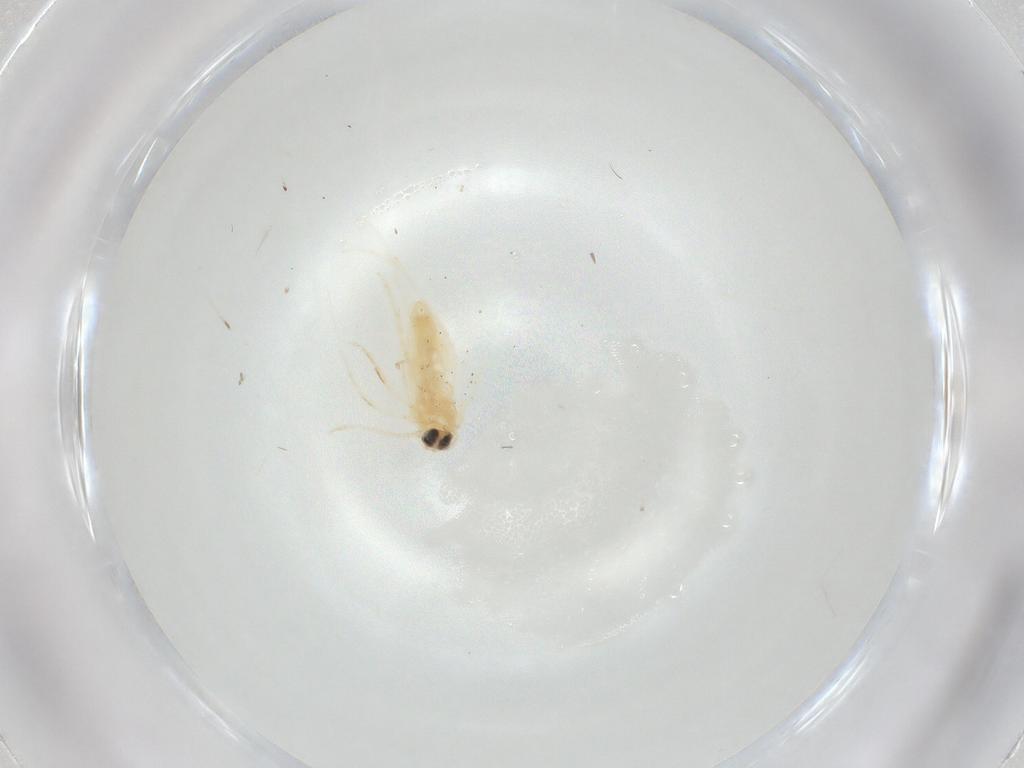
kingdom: Animalia
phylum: Arthropoda
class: Insecta
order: Lepidoptera
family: Nepticulidae
